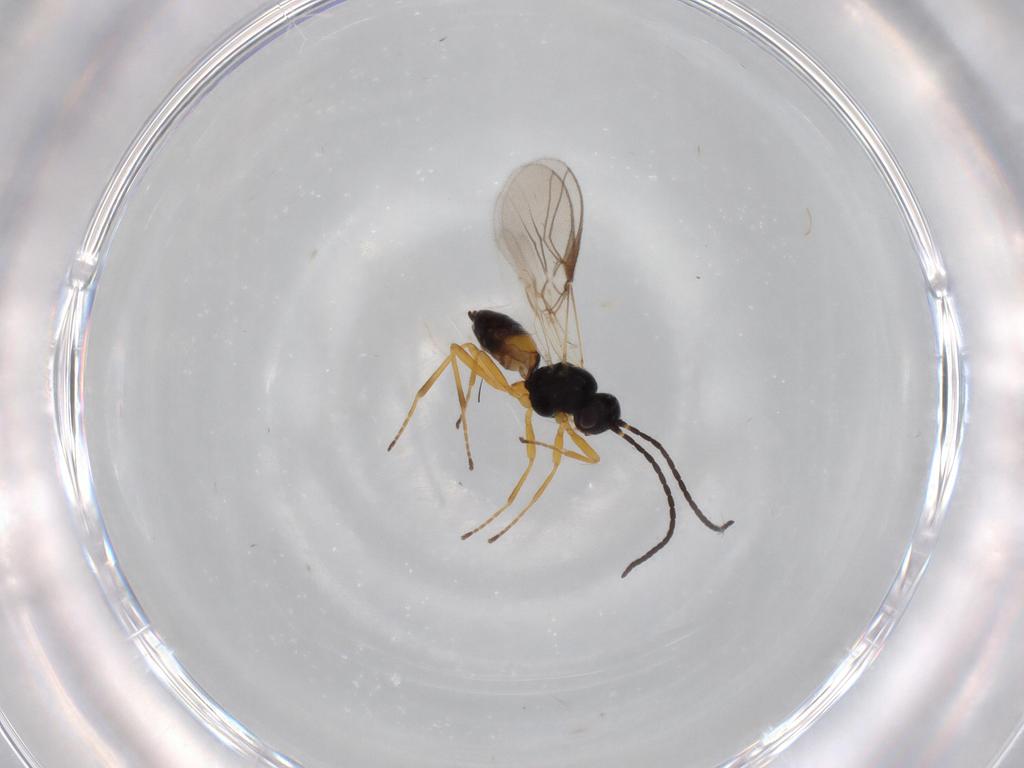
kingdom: Animalia
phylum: Arthropoda
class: Insecta
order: Hymenoptera
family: Braconidae
